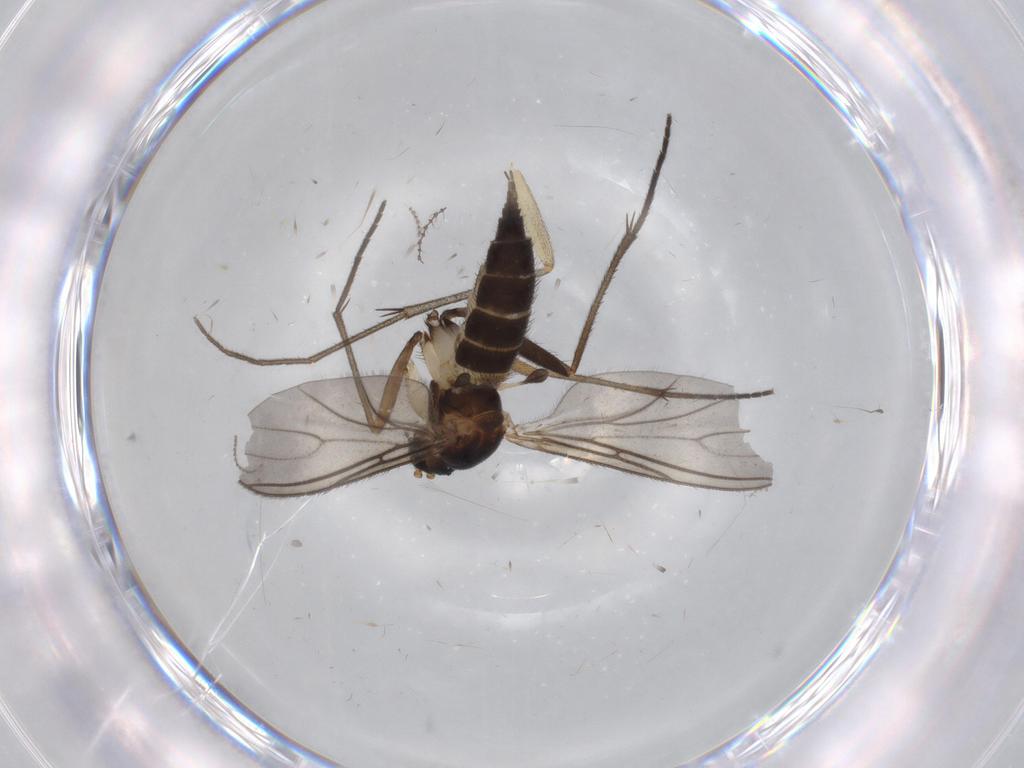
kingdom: Animalia
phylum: Arthropoda
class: Insecta
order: Diptera
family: Sciaridae
